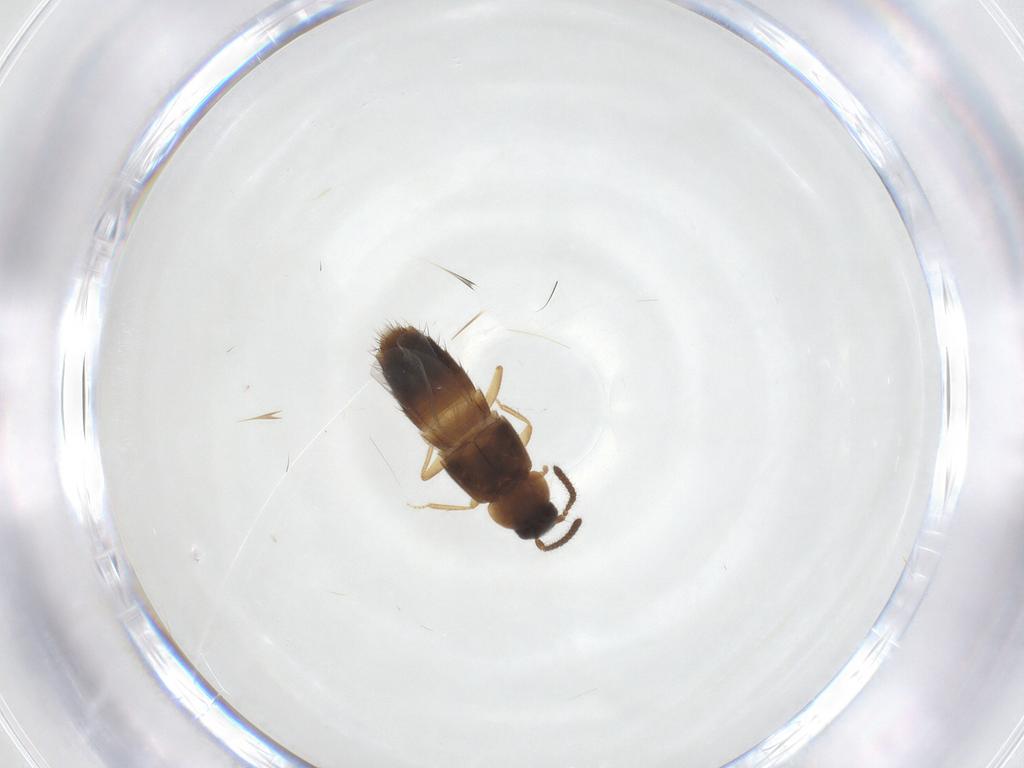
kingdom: Animalia
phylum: Arthropoda
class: Insecta
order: Coleoptera
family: Staphylinidae
